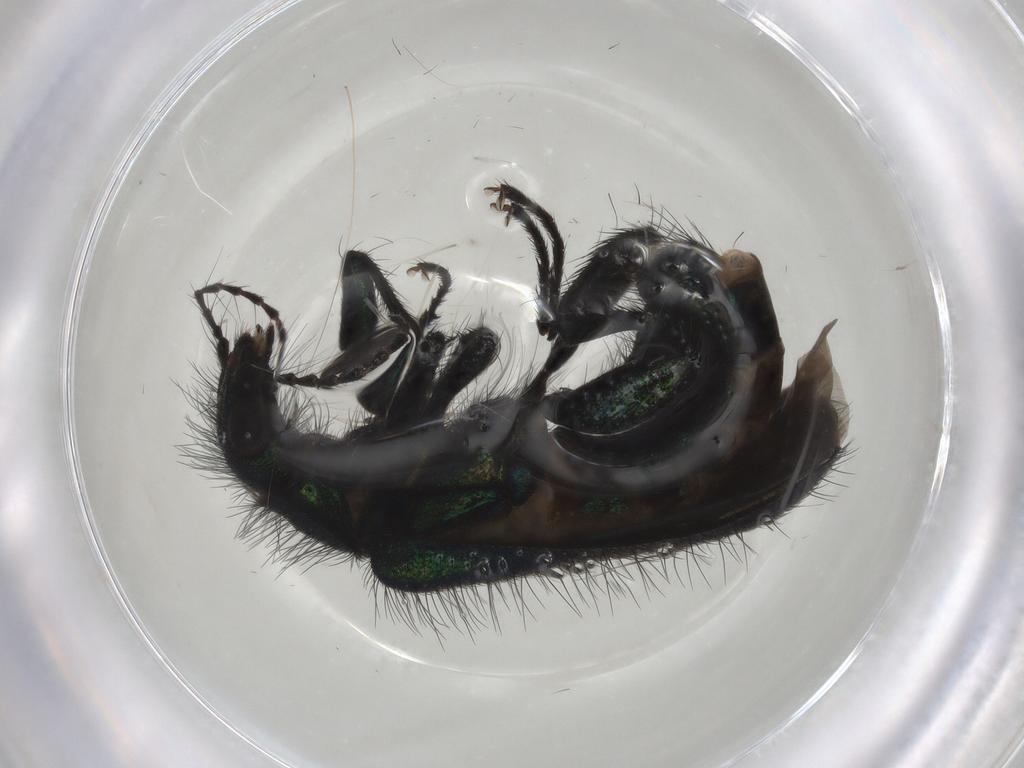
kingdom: Animalia
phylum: Arthropoda
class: Insecta
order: Coleoptera
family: Melyridae
